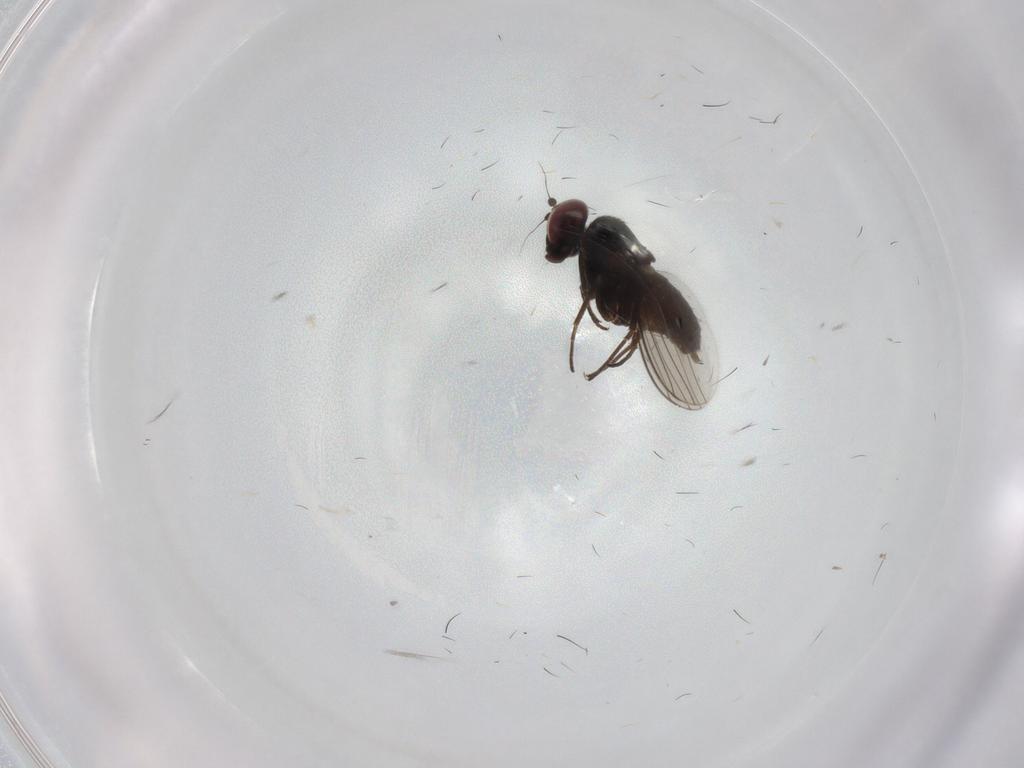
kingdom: Animalia
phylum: Arthropoda
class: Insecta
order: Diptera
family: Dolichopodidae
